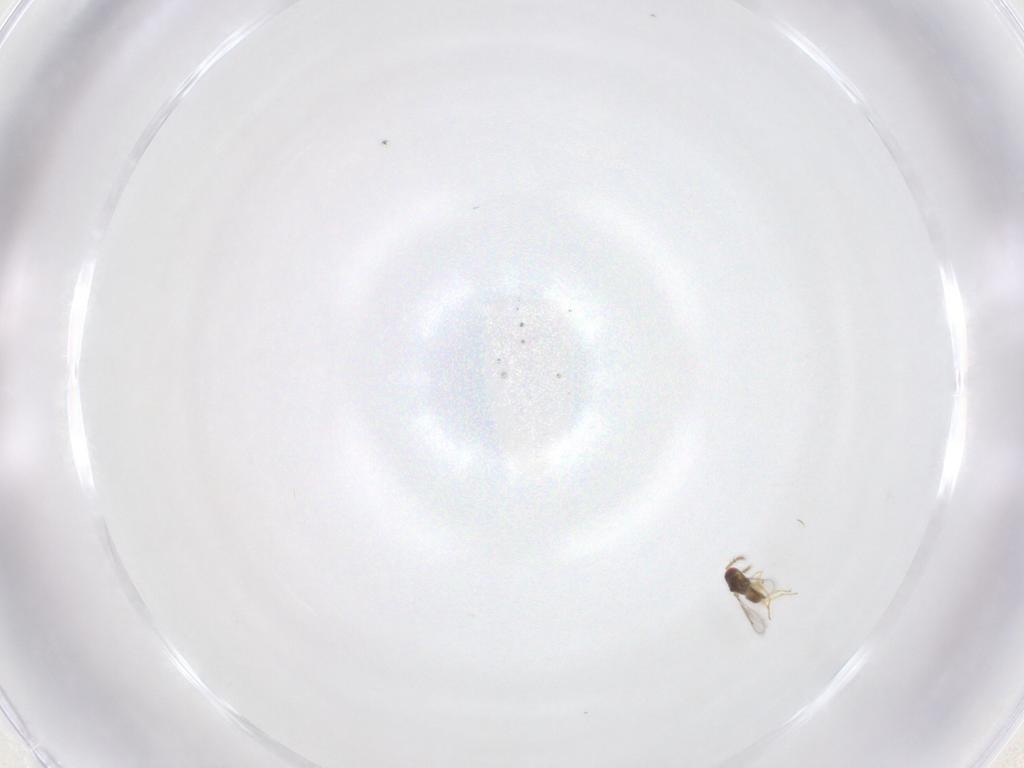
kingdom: Animalia
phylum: Arthropoda
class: Insecta
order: Hymenoptera
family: Eulophidae
